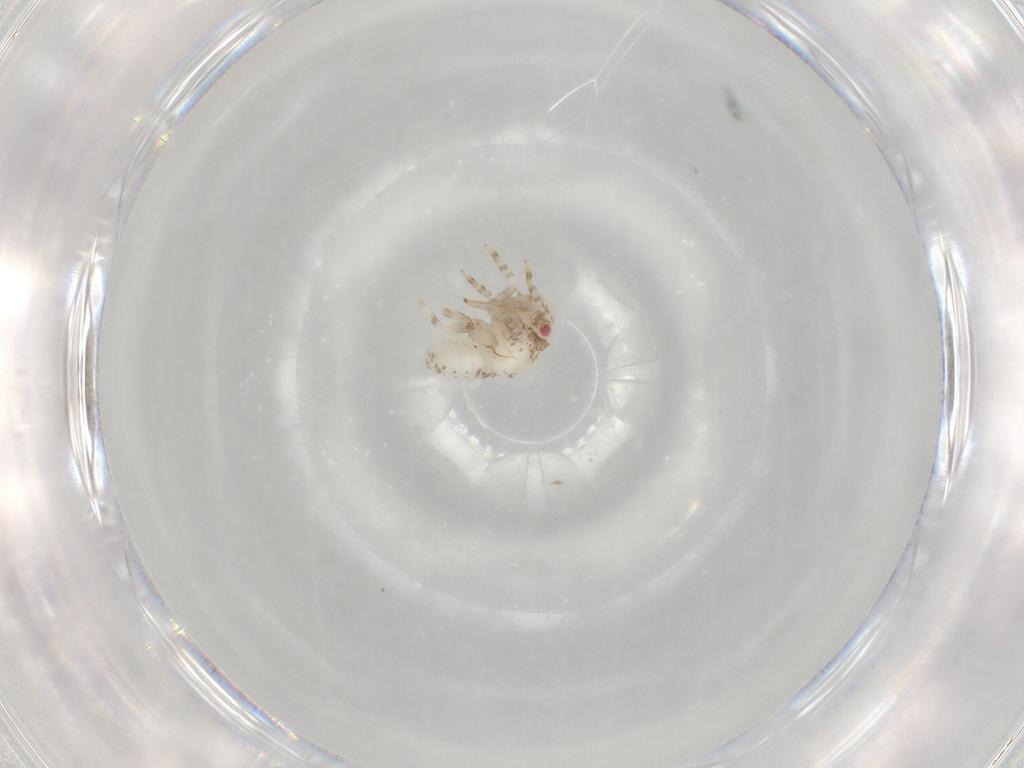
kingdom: Animalia
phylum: Arthropoda
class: Insecta
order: Hemiptera
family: Acanaloniidae
